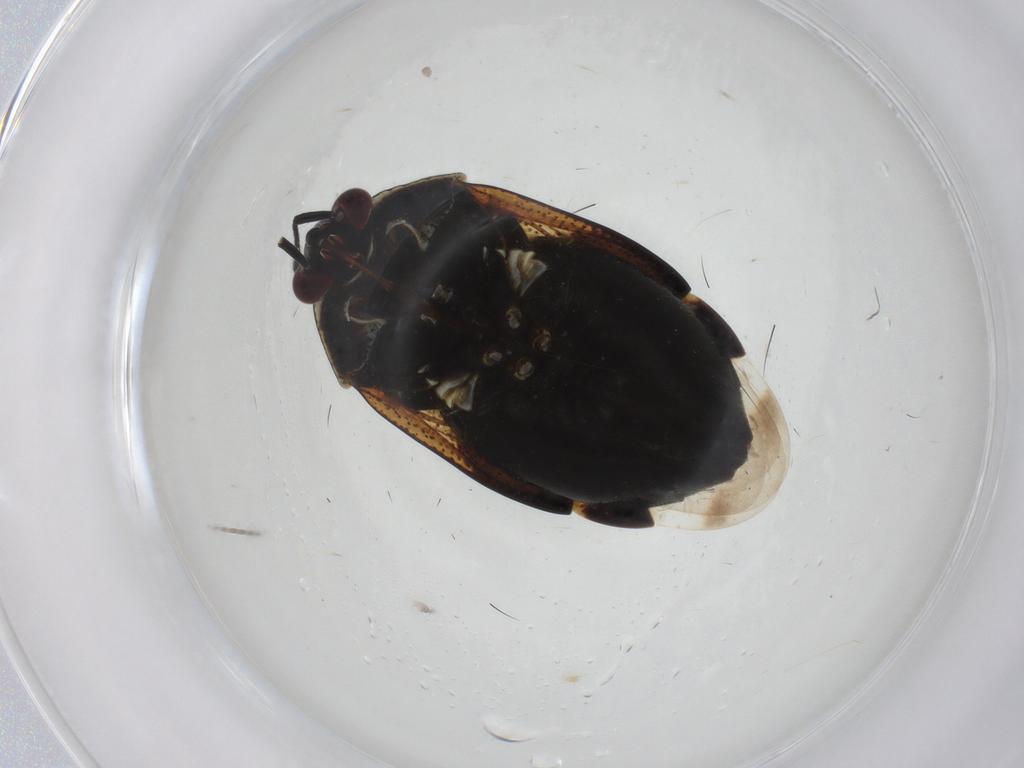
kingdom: Animalia
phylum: Arthropoda
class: Insecta
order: Hemiptera
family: Miridae
